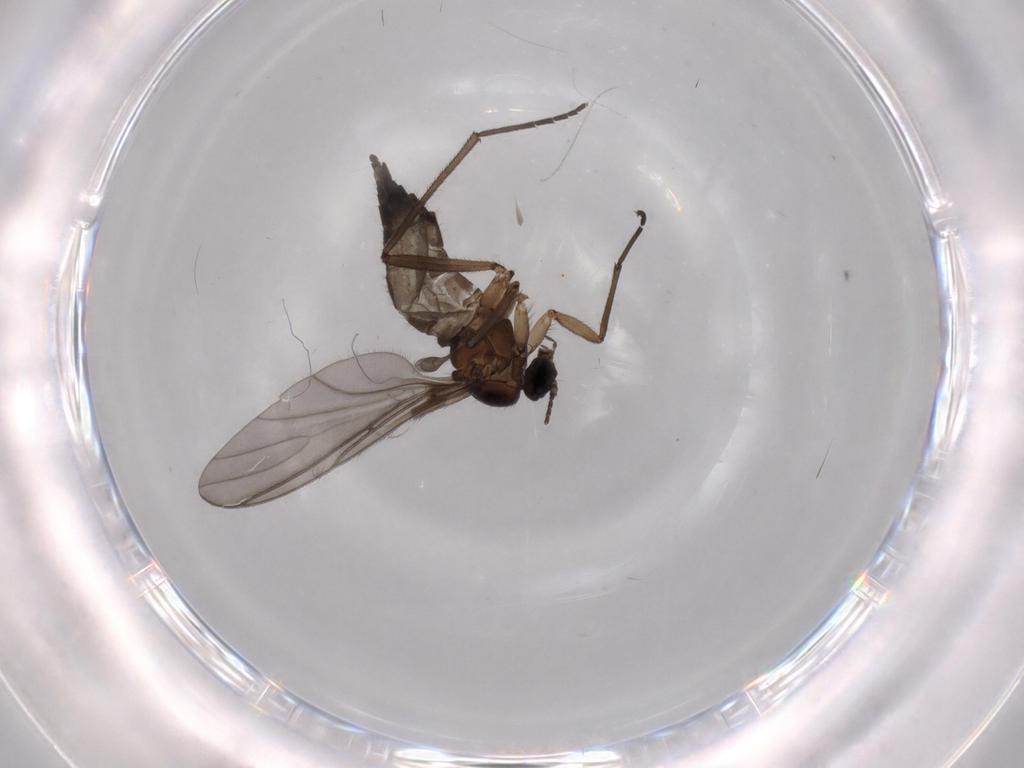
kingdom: Animalia
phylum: Arthropoda
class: Insecta
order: Diptera
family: Sciaridae
